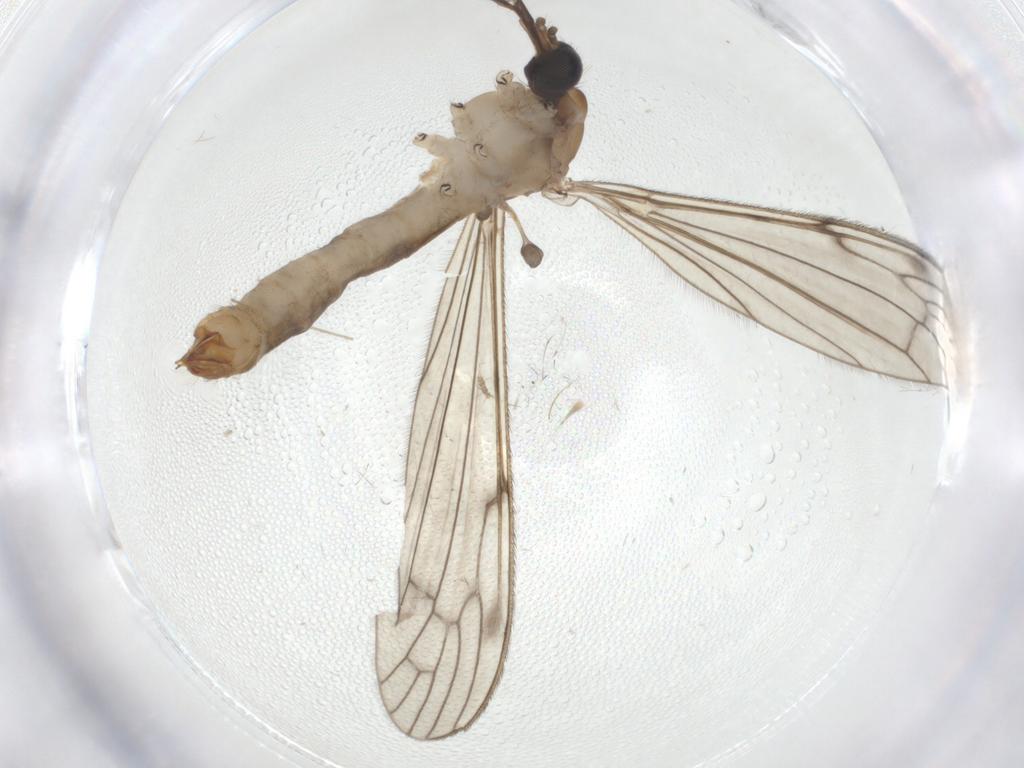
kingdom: Animalia
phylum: Arthropoda
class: Insecta
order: Diptera
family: Limoniidae
